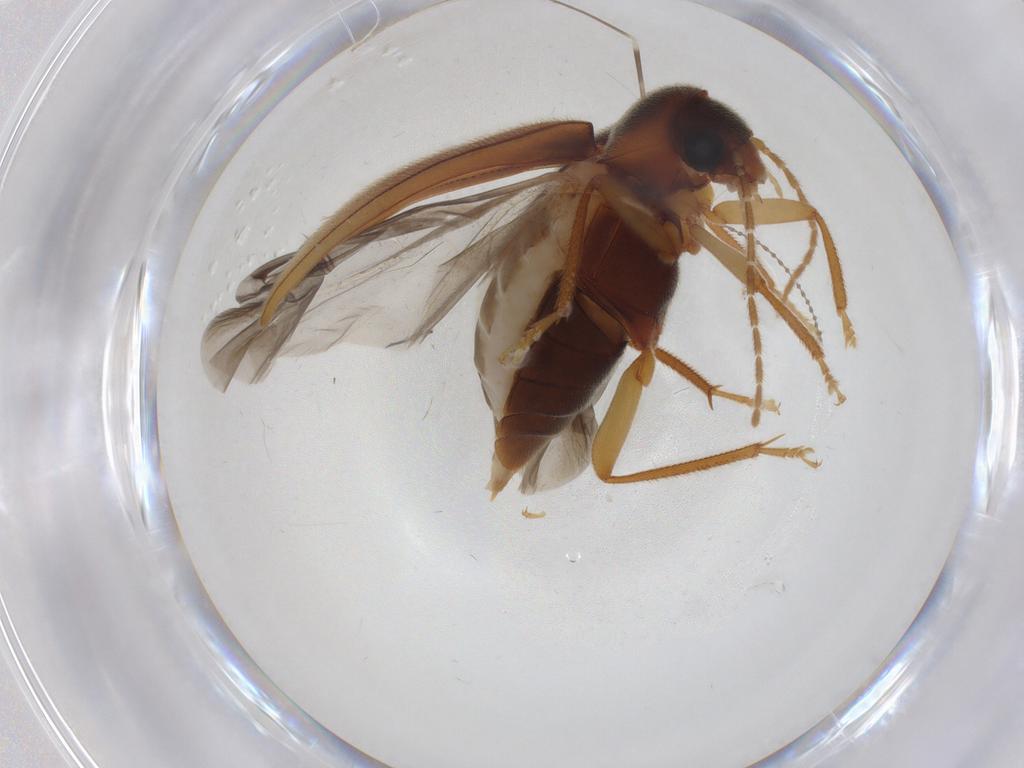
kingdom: Animalia
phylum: Arthropoda
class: Insecta
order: Coleoptera
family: Ptilodactylidae
